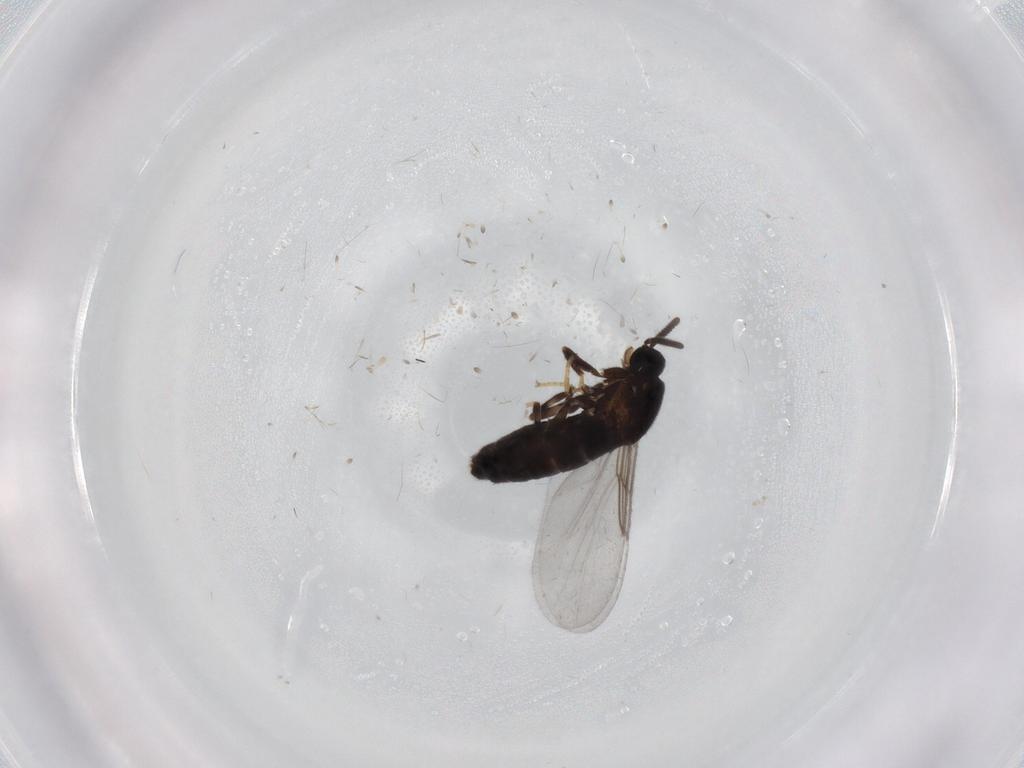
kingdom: Animalia
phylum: Arthropoda
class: Insecta
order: Diptera
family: Scatopsidae
